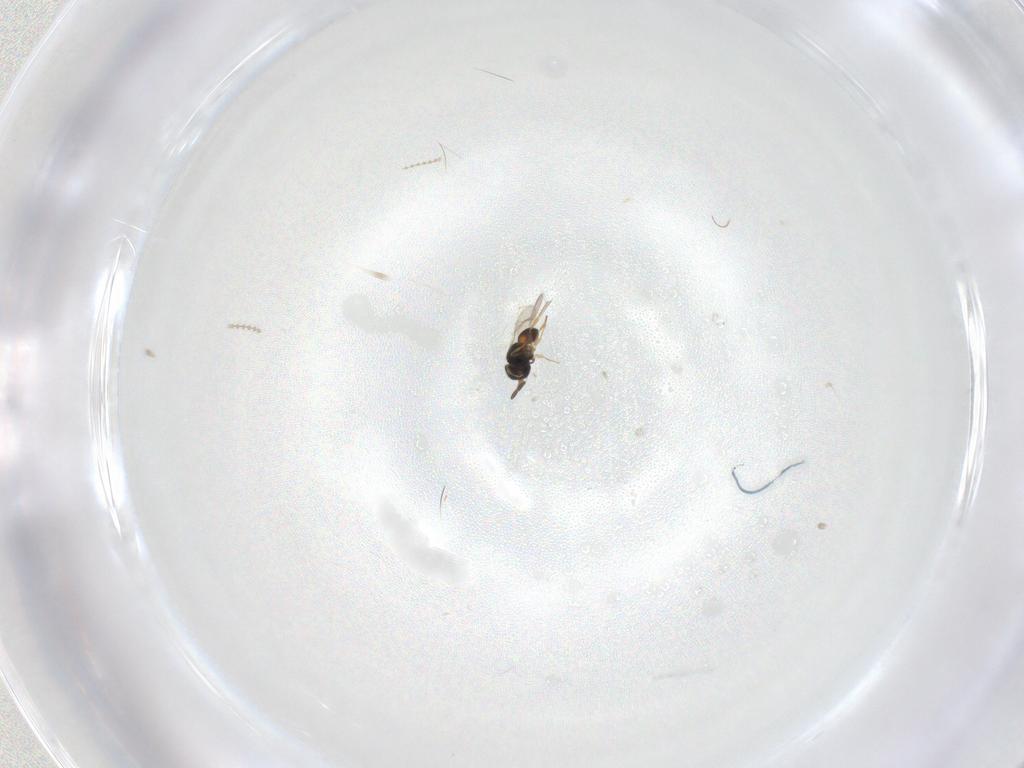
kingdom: Animalia
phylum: Arthropoda
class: Insecta
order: Hymenoptera
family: Scelionidae
